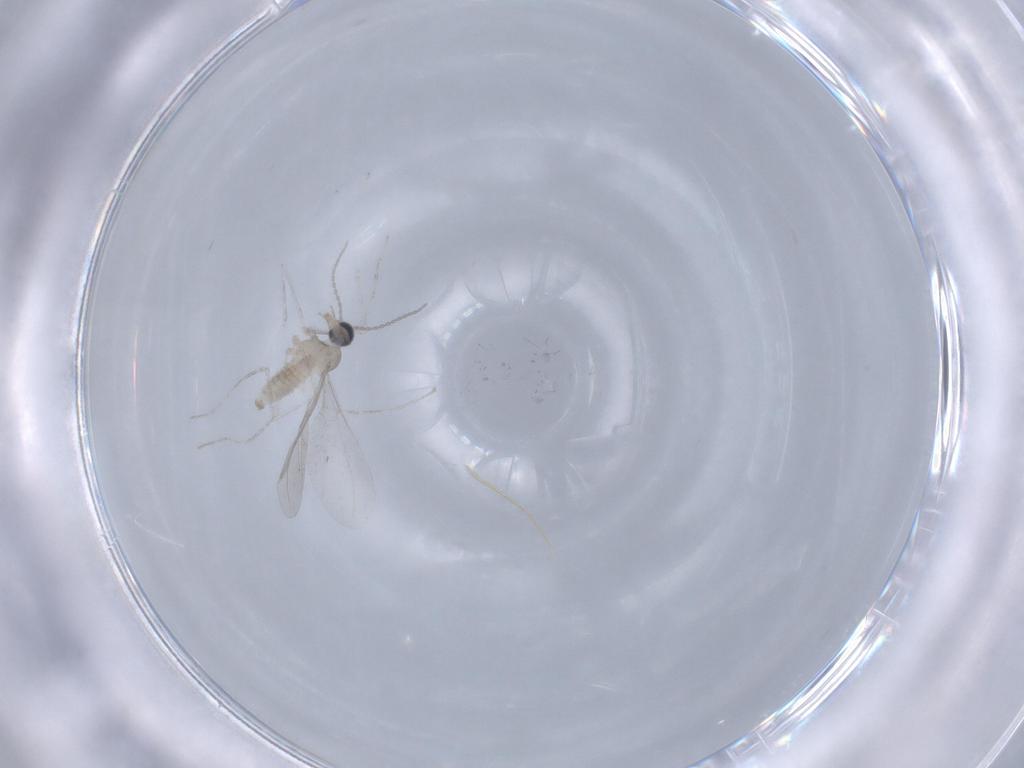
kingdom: Animalia
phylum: Arthropoda
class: Insecta
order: Diptera
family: Cecidomyiidae
